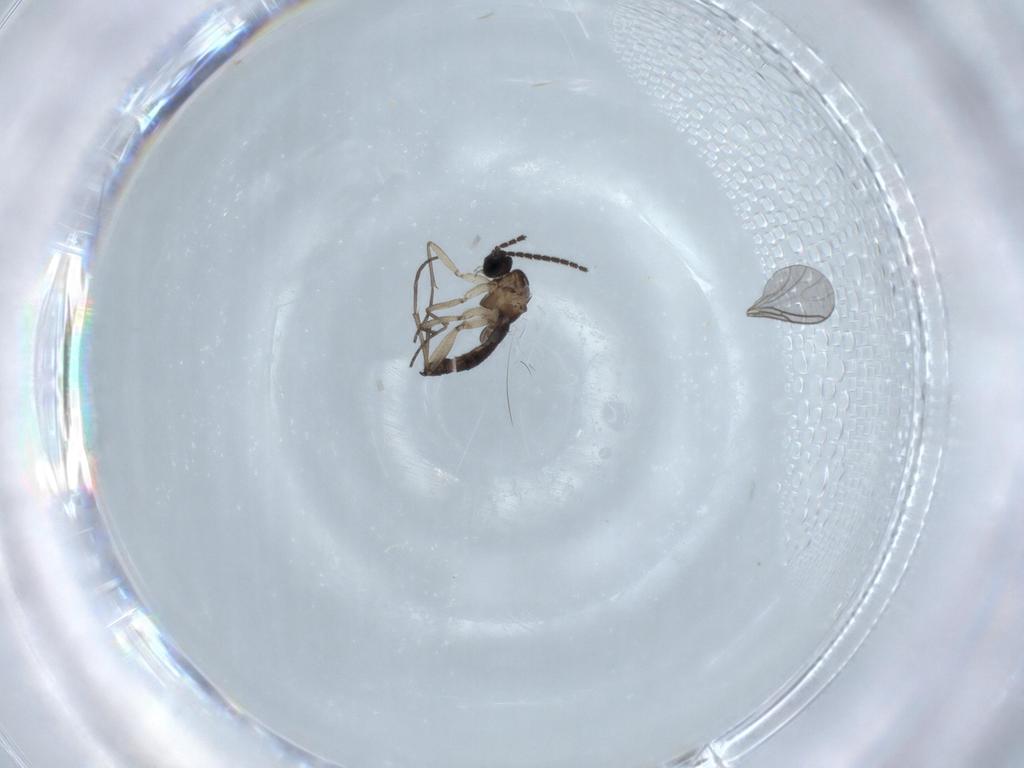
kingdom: Animalia
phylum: Arthropoda
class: Insecta
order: Diptera
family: Sciaridae
